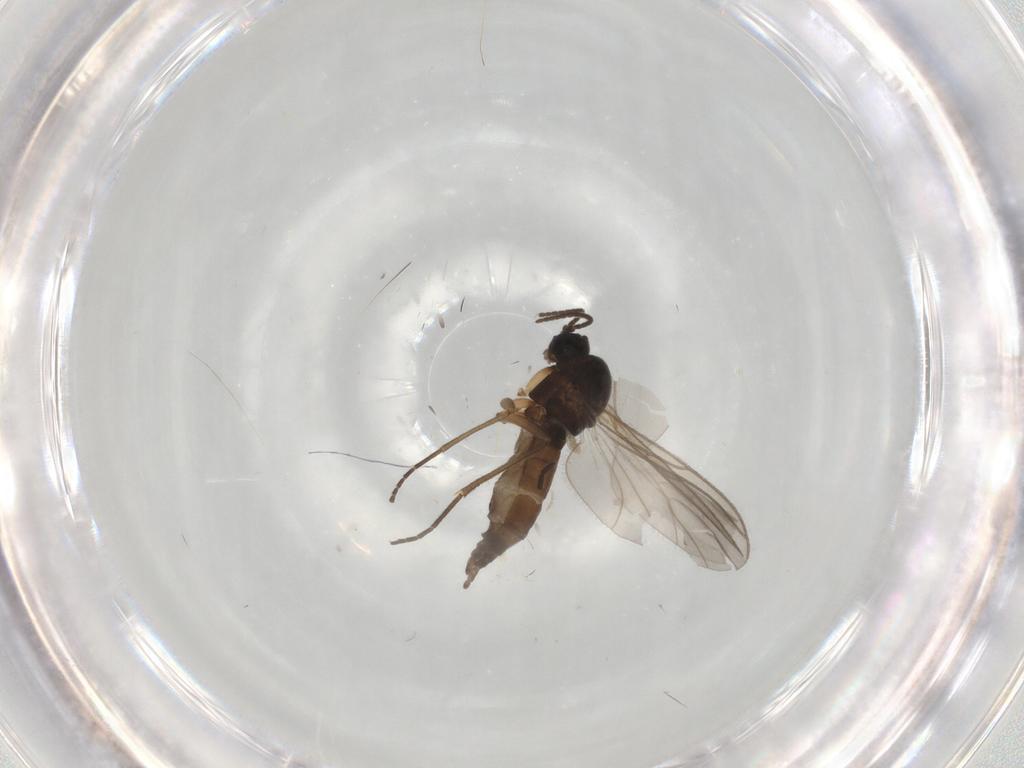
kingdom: Animalia
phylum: Arthropoda
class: Insecta
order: Diptera
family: Sciaridae
